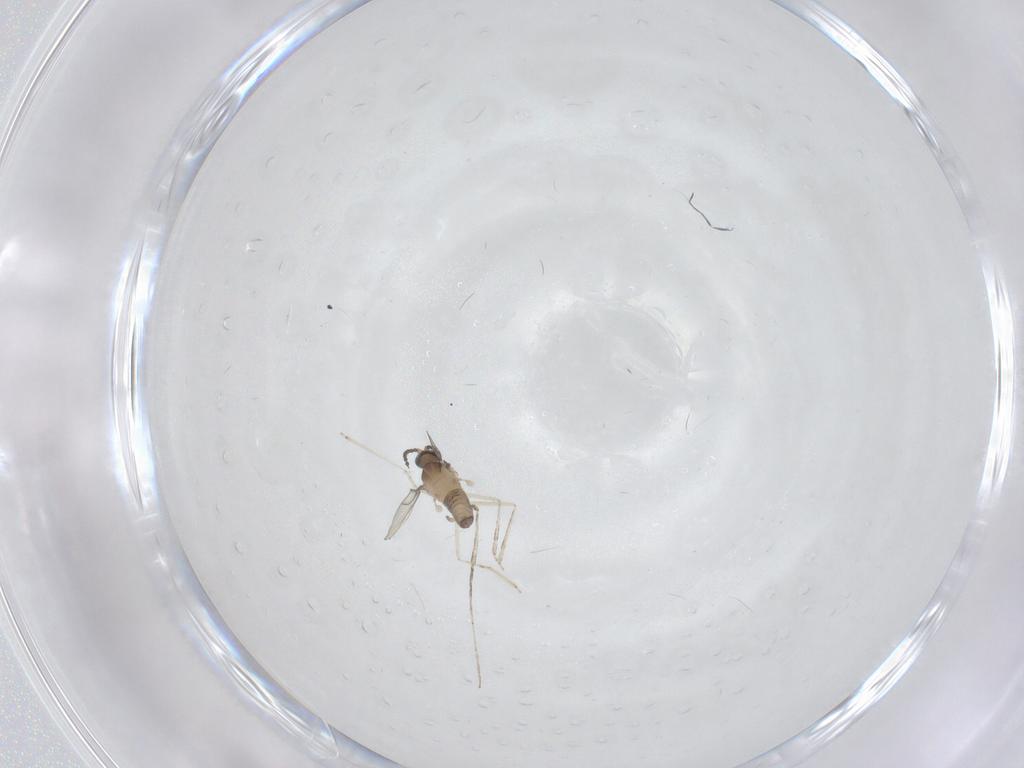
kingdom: Animalia
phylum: Arthropoda
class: Insecta
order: Hemiptera
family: Aleyrodidae
